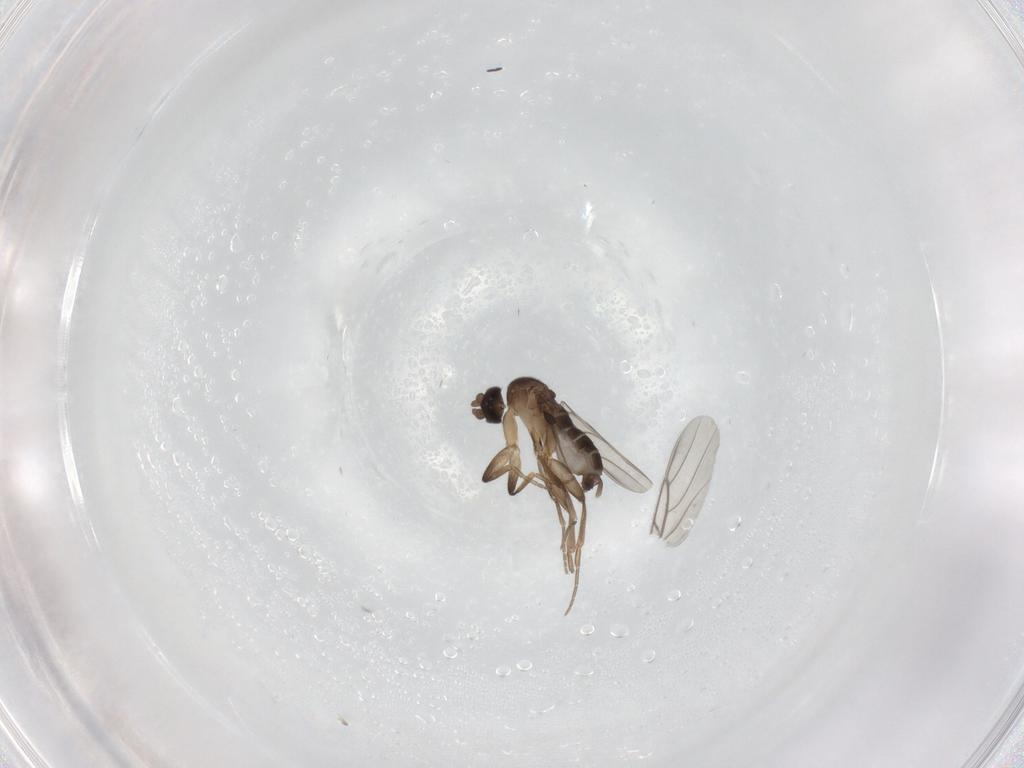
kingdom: Animalia
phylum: Arthropoda
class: Insecta
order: Diptera
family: Phoridae
